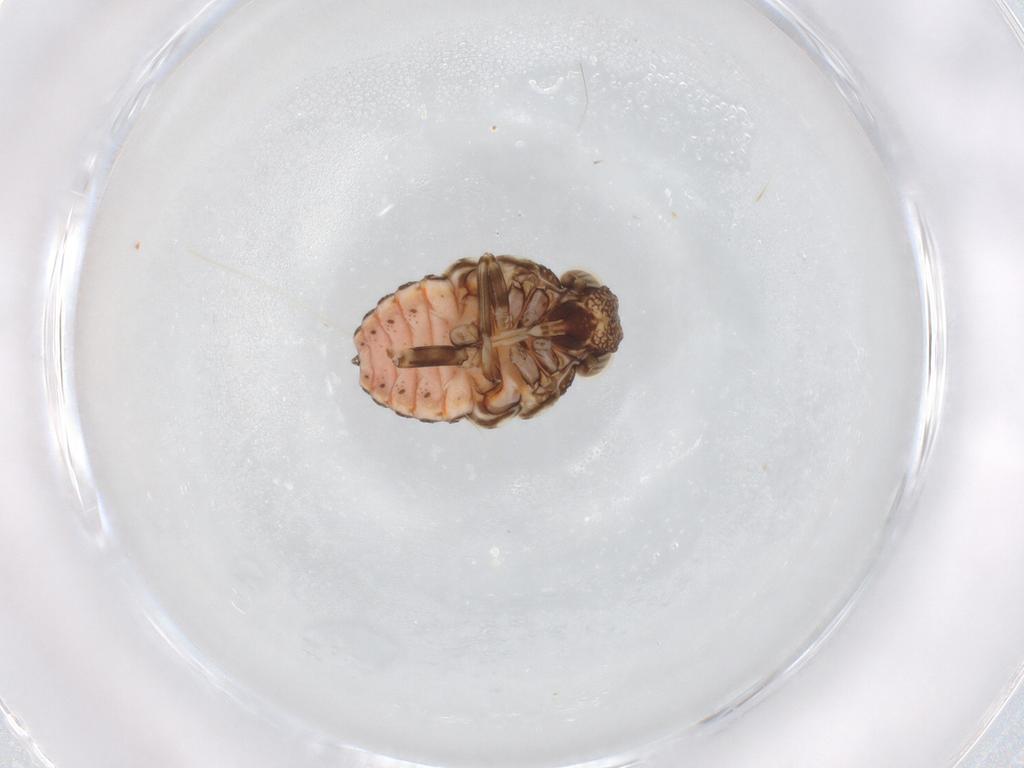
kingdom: Animalia
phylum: Arthropoda
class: Insecta
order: Hemiptera
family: Issidae
